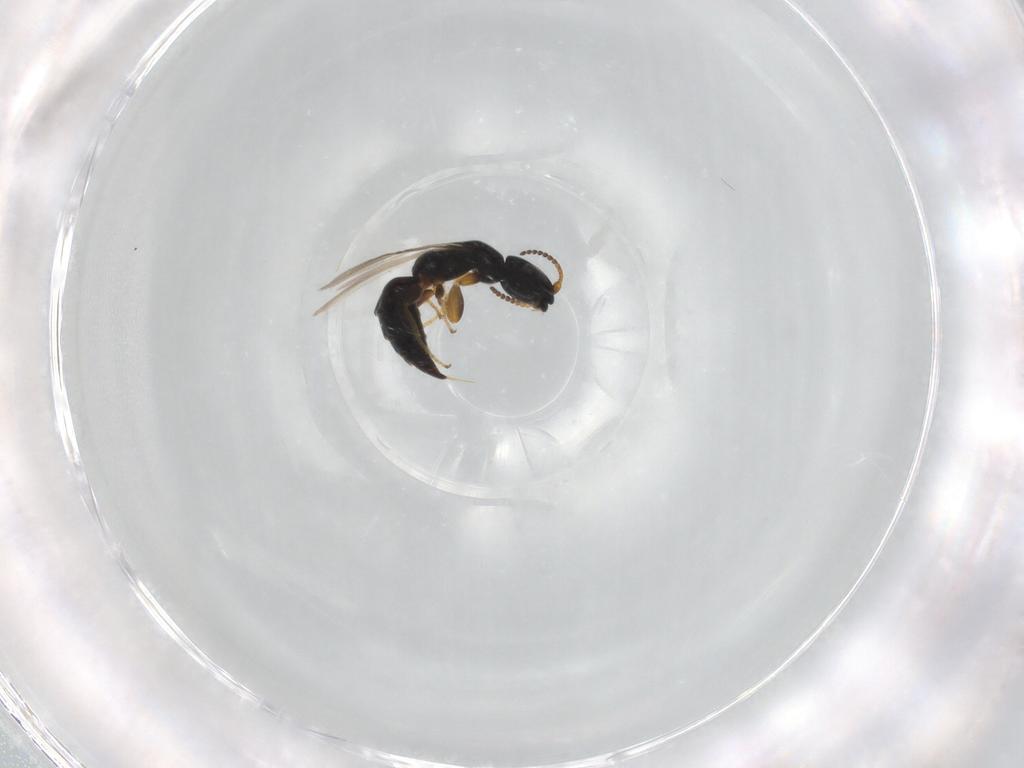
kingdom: Animalia
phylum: Arthropoda
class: Insecta
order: Hymenoptera
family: Bethylidae
